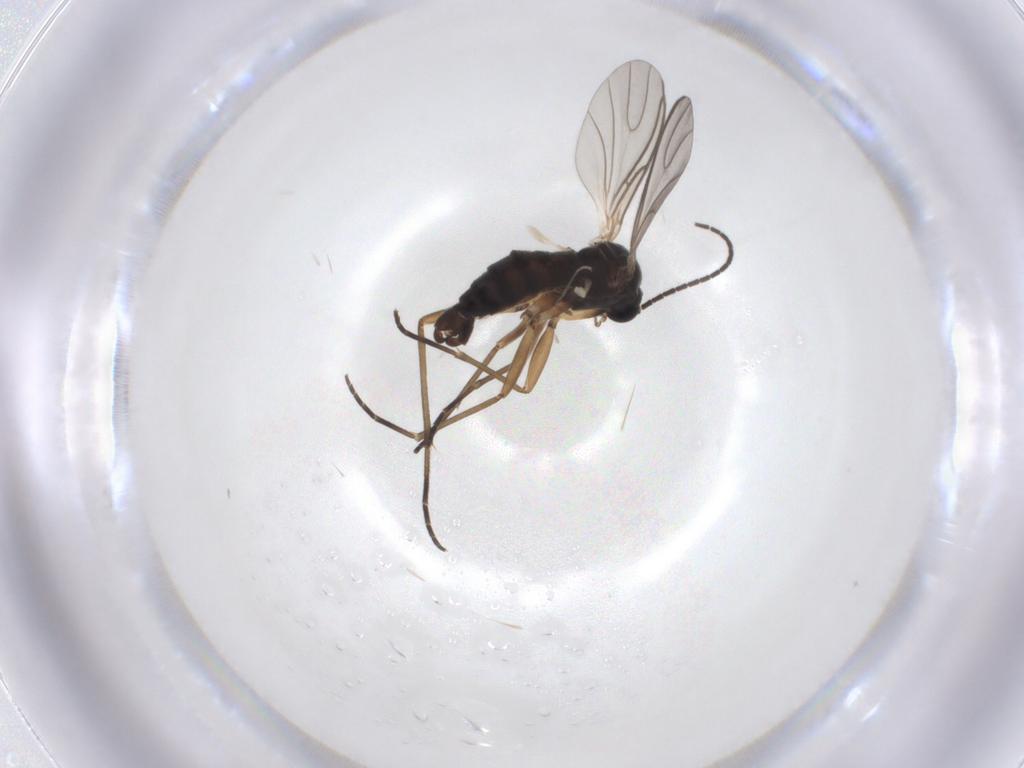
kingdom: Animalia
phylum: Arthropoda
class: Insecta
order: Diptera
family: Sciaridae
